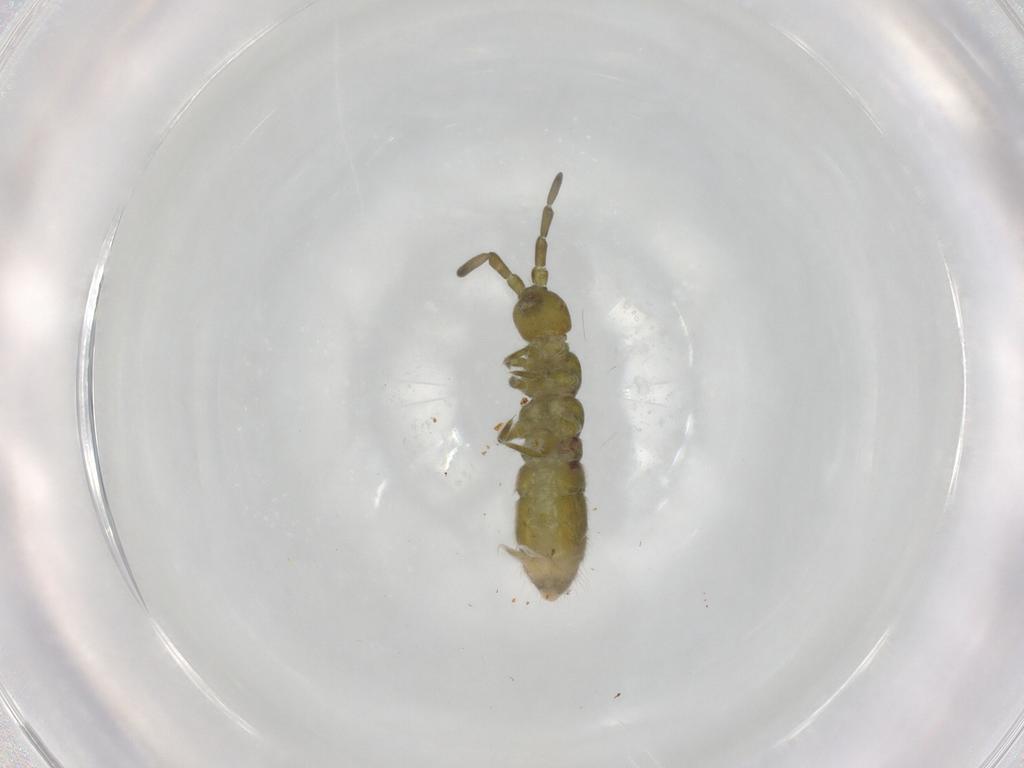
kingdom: Animalia
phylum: Arthropoda
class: Collembola
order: Entomobryomorpha
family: Isotomidae
